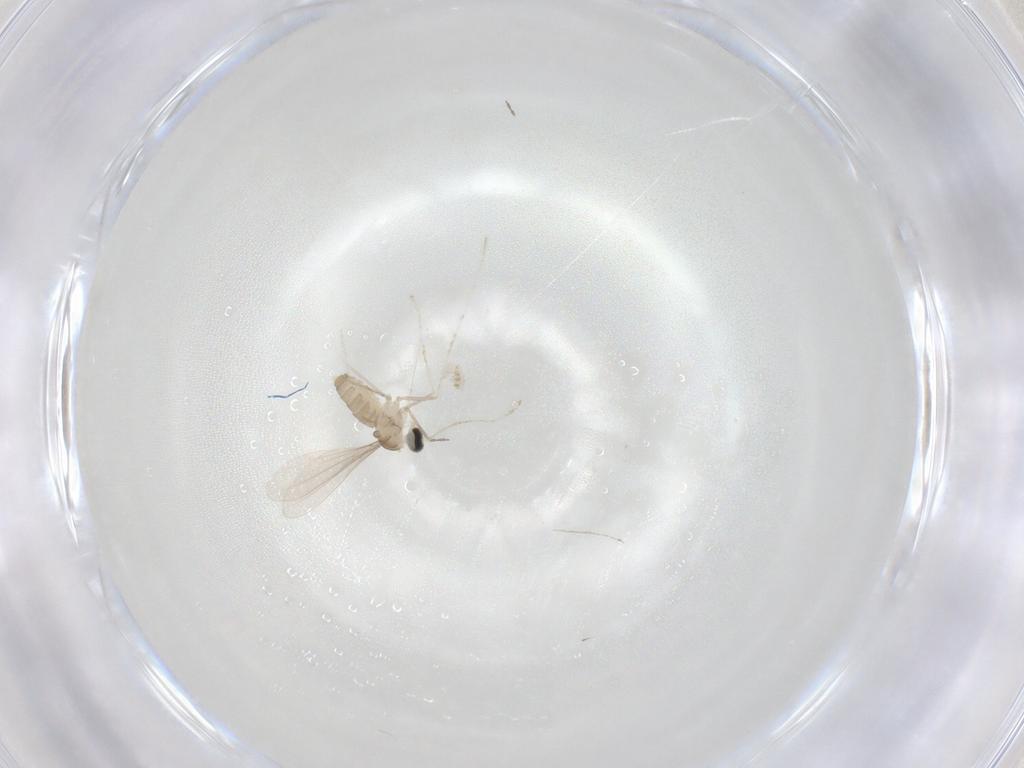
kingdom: Animalia
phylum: Arthropoda
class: Insecta
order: Diptera
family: Cecidomyiidae
